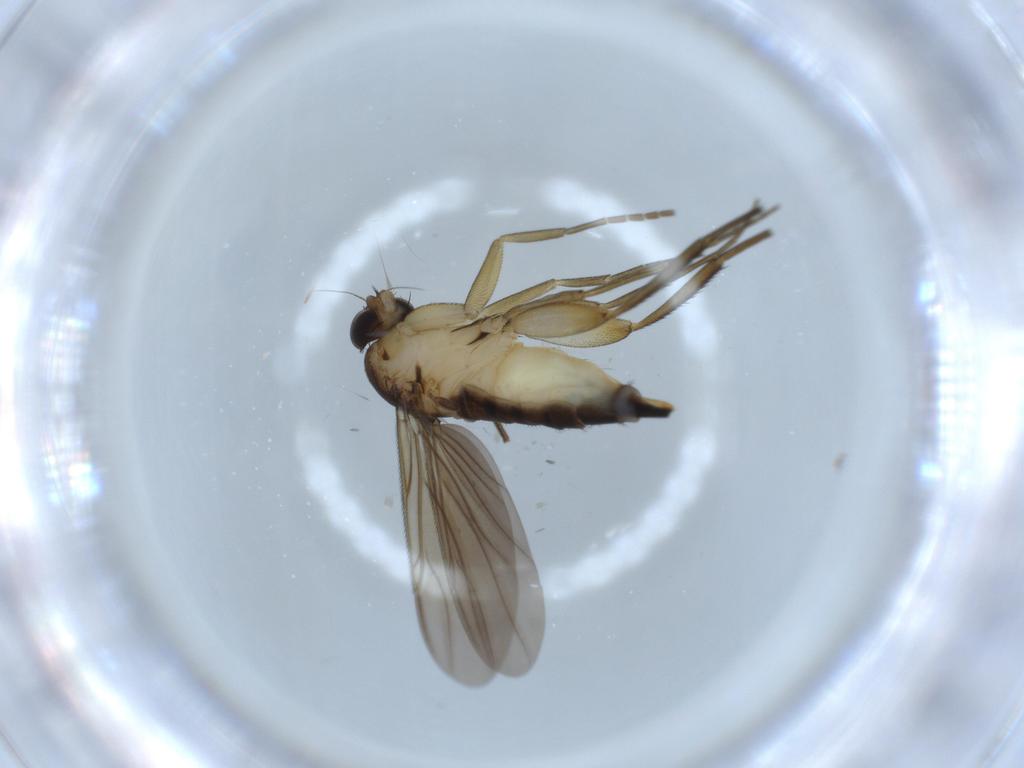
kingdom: Animalia
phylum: Arthropoda
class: Insecta
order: Diptera
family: Phoridae
